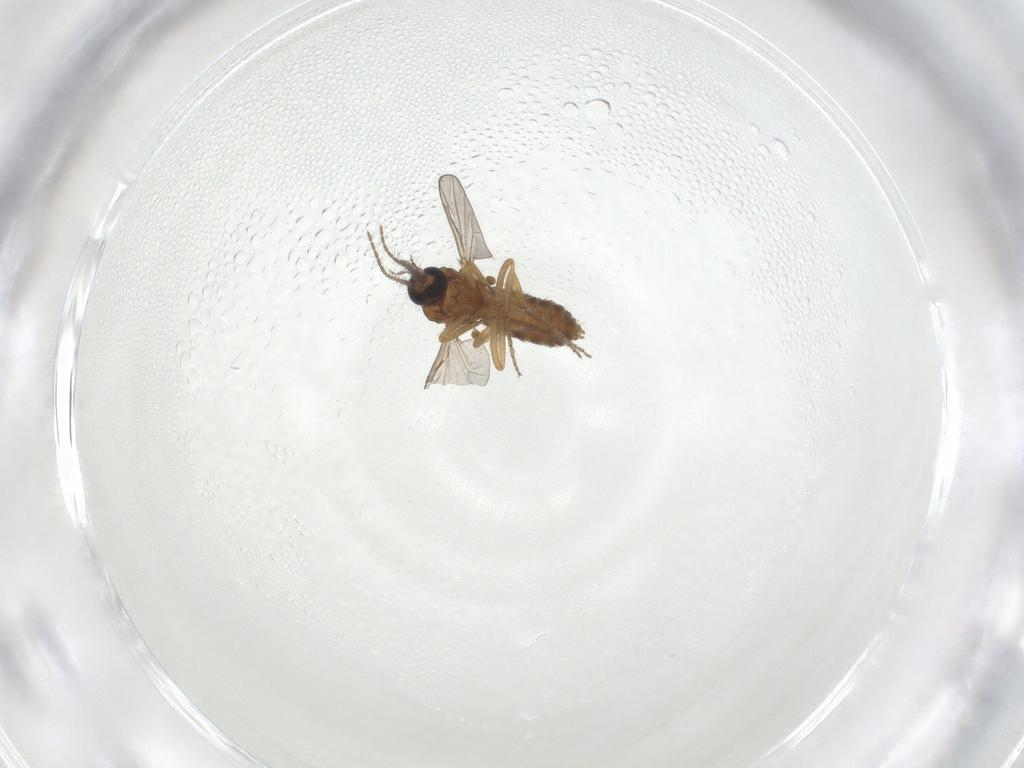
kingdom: Animalia
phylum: Arthropoda
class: Insecta
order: Diptera
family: Ceratopogonidae
